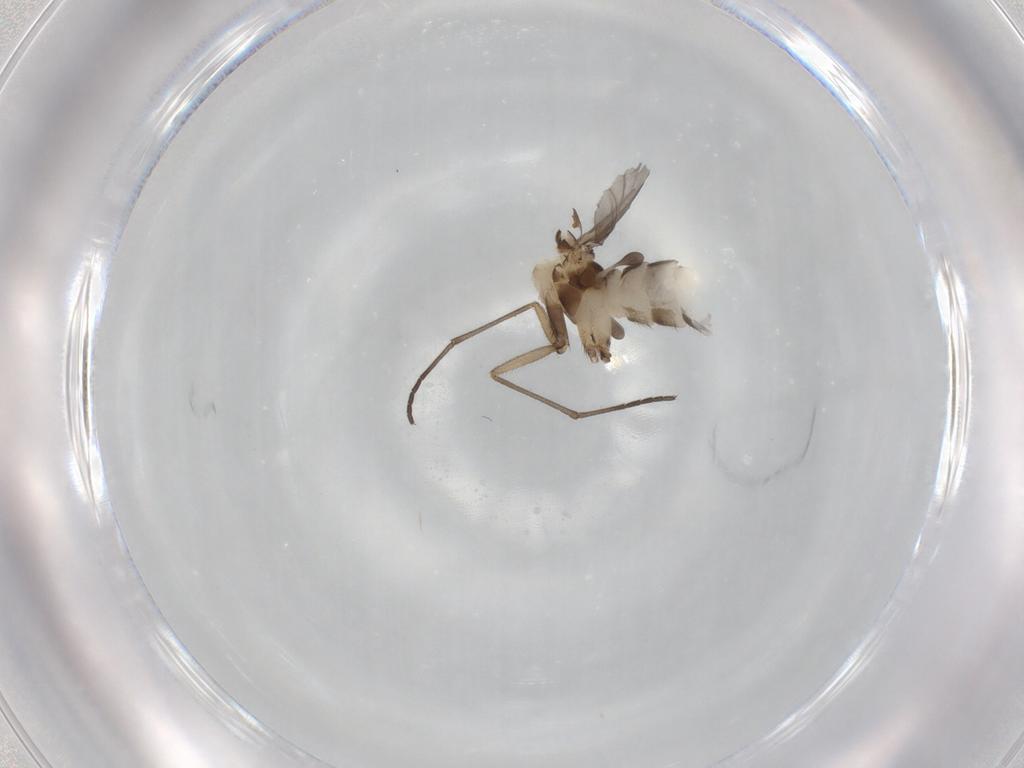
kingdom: Animalia
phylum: Arthropoda
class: Insecta
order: Diptera
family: Sciaridae
